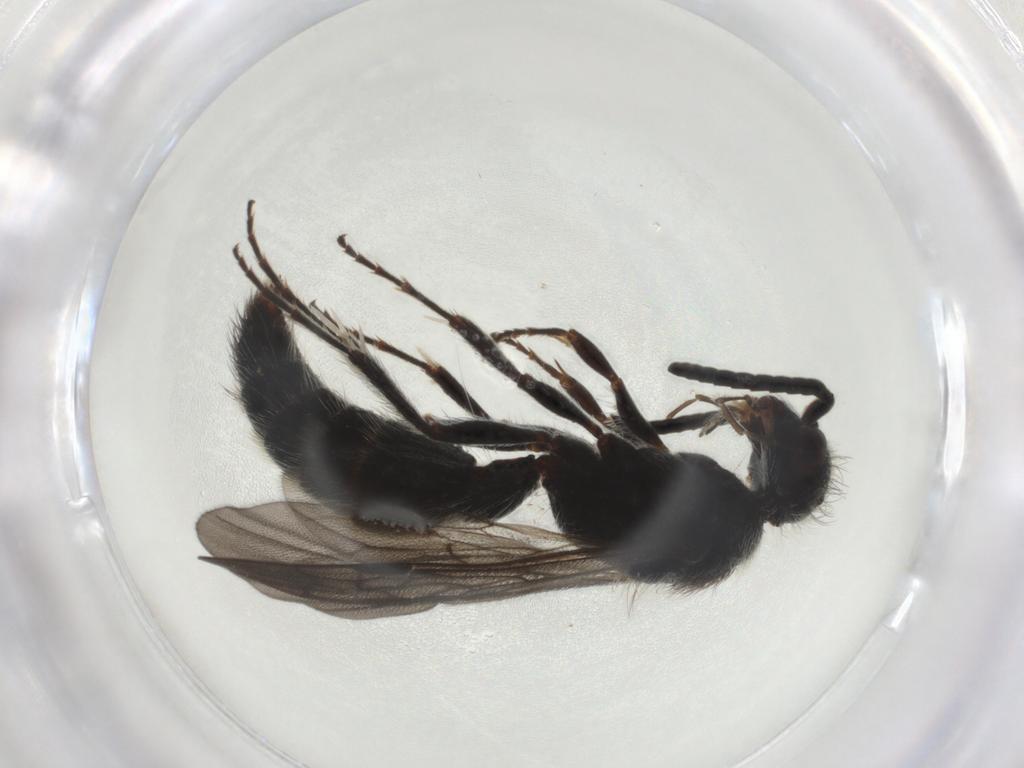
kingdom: Animalia
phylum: Arthropoda
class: Insecta
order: Hymenoptera
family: Mutillidae
